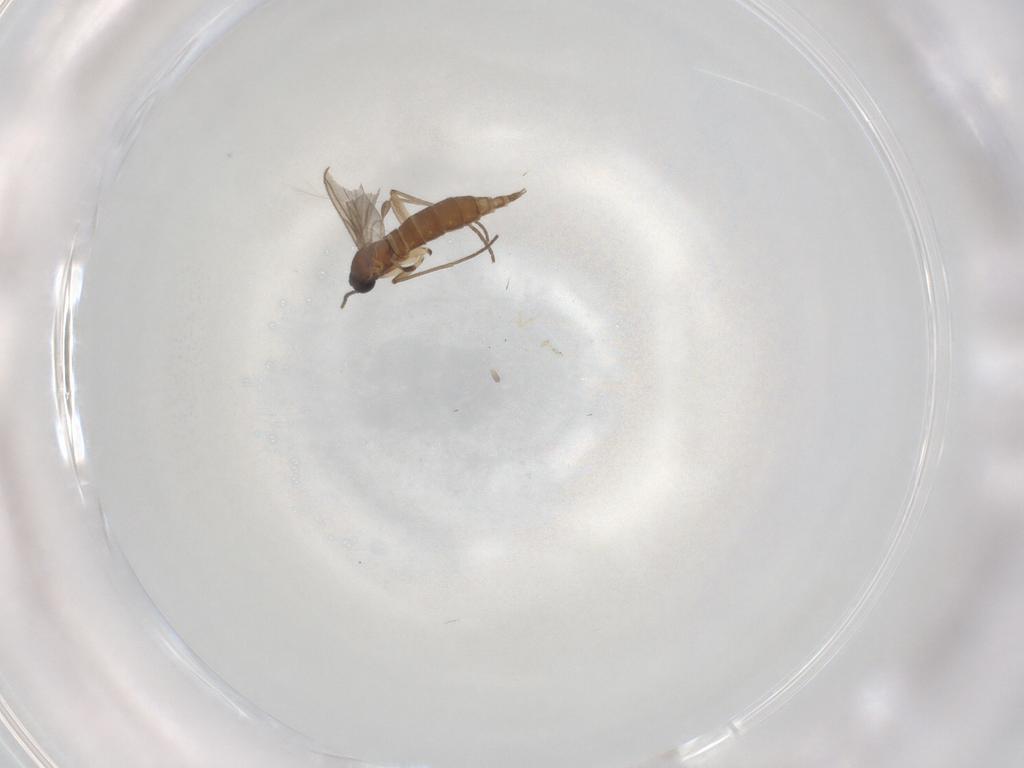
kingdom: Animalia
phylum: Arthropoda
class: Insecta
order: Diptera
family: Sciaridae
